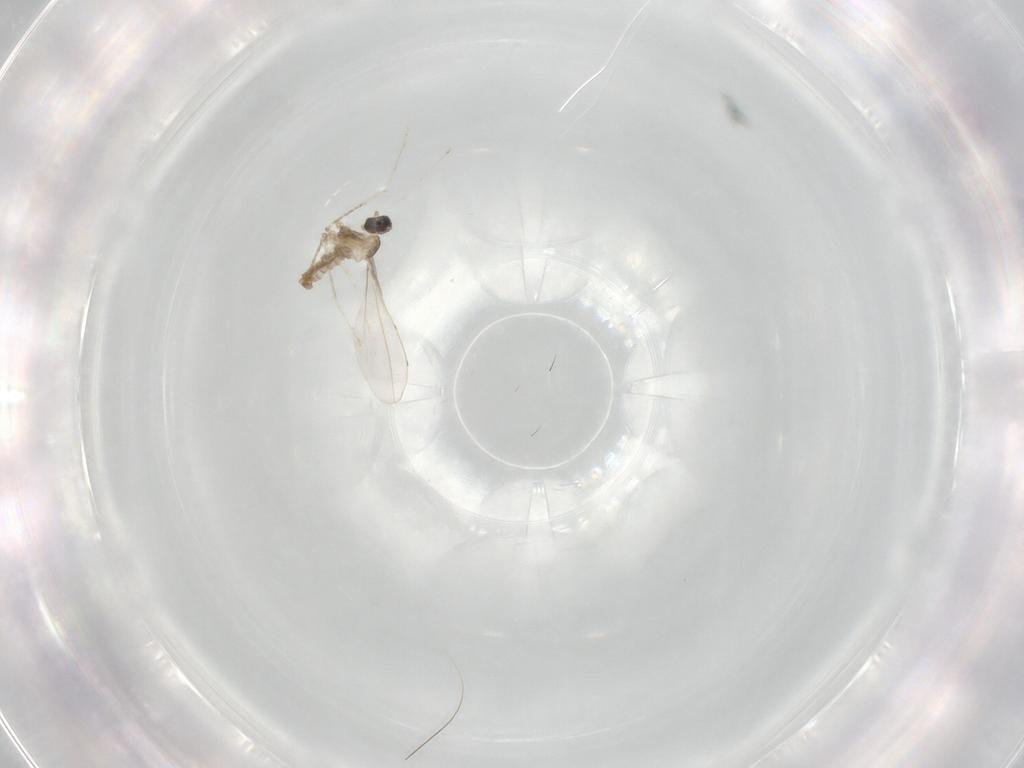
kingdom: Animalia
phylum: Arthropoda
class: Insecta
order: Diptera
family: Cecidomyiidae
